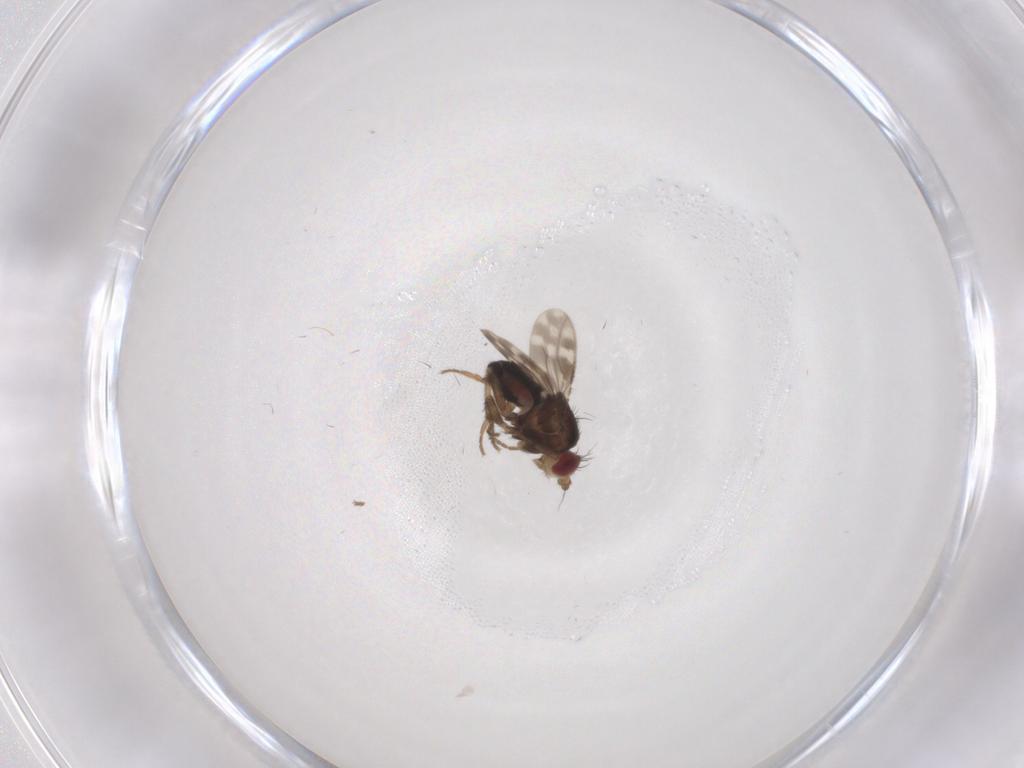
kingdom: Animalia
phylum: Arthropoda
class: Insecta
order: Diptera
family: Sphaeroceridae
